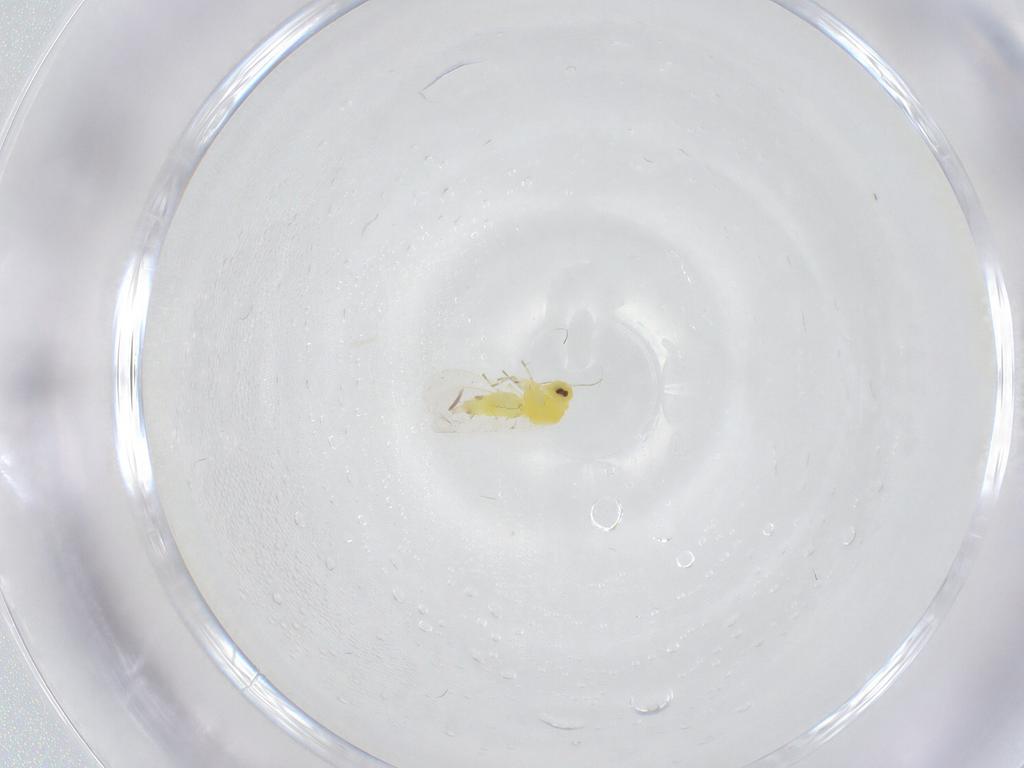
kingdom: Animalia
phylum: Arthropoda
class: Insecta
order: Hemiptera
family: Aleyrodidae
